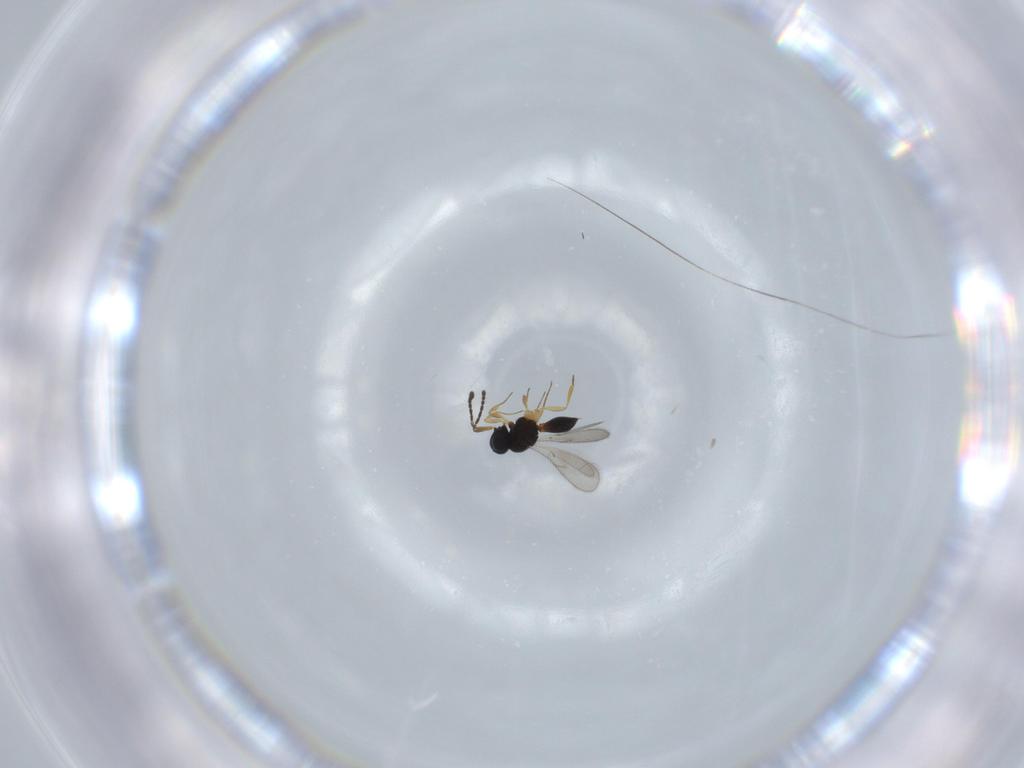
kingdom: Animalia
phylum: Arthropoda
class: Insecta
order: Hymenoptera
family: Scelionidae
